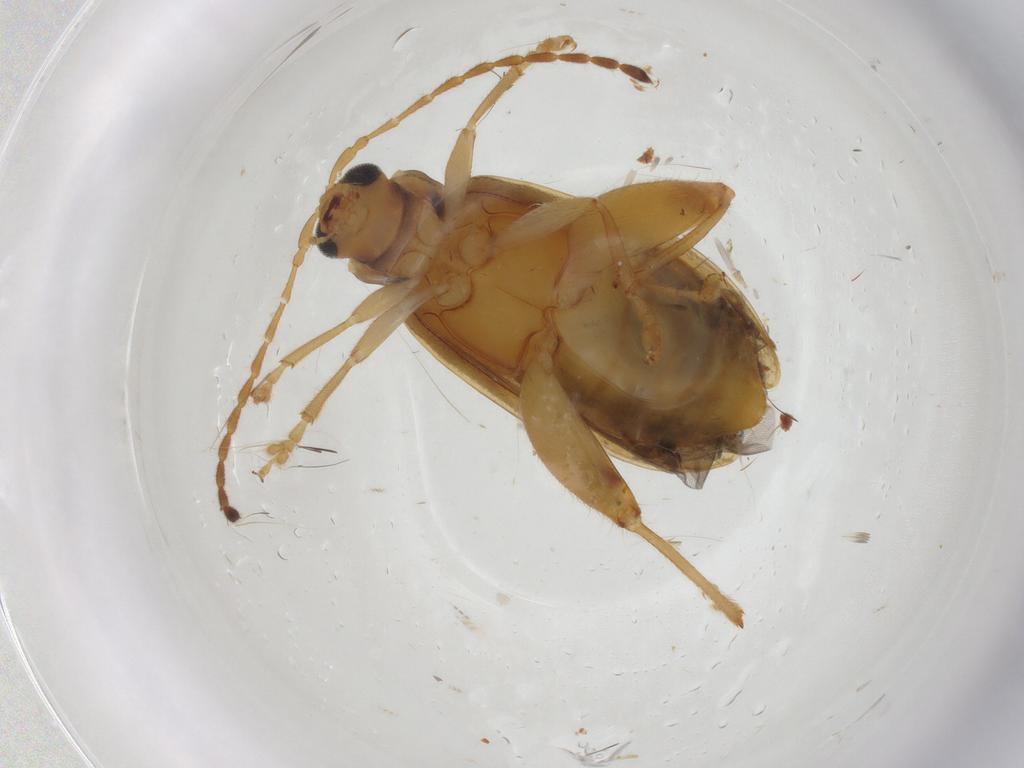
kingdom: Animalia
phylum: Arthropoda
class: Insecta
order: Coleoptera
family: Chrysomelidae
